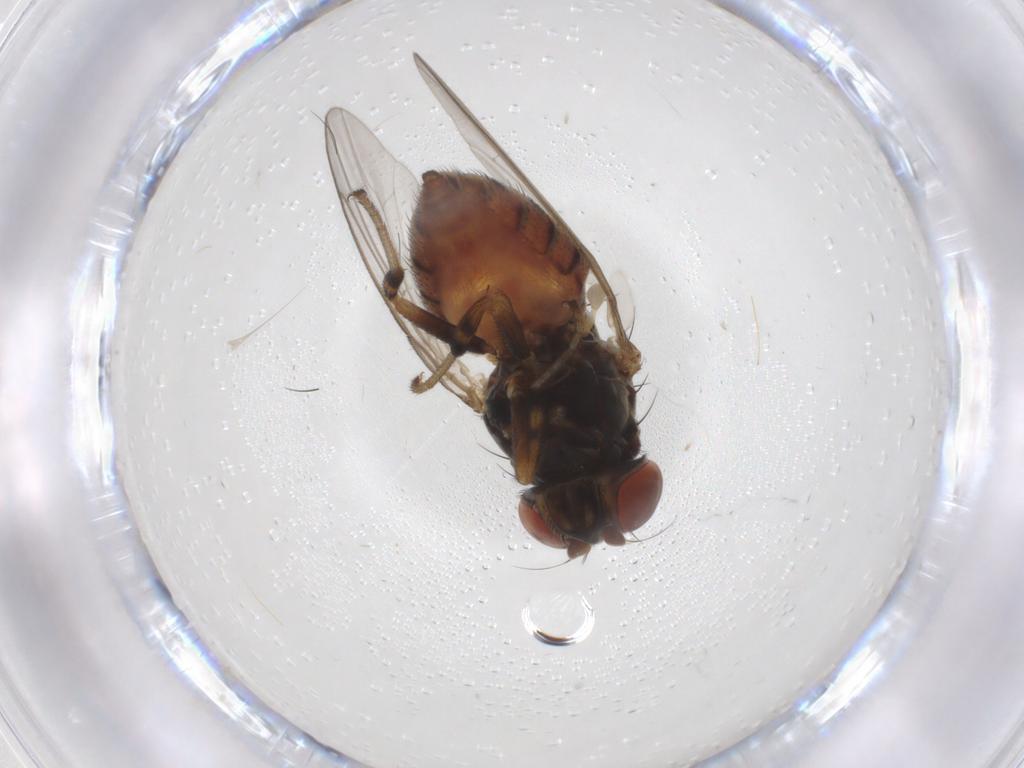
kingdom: Animalia
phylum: Arthropoda
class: Insecta
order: Diptera
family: Drosophilidae
